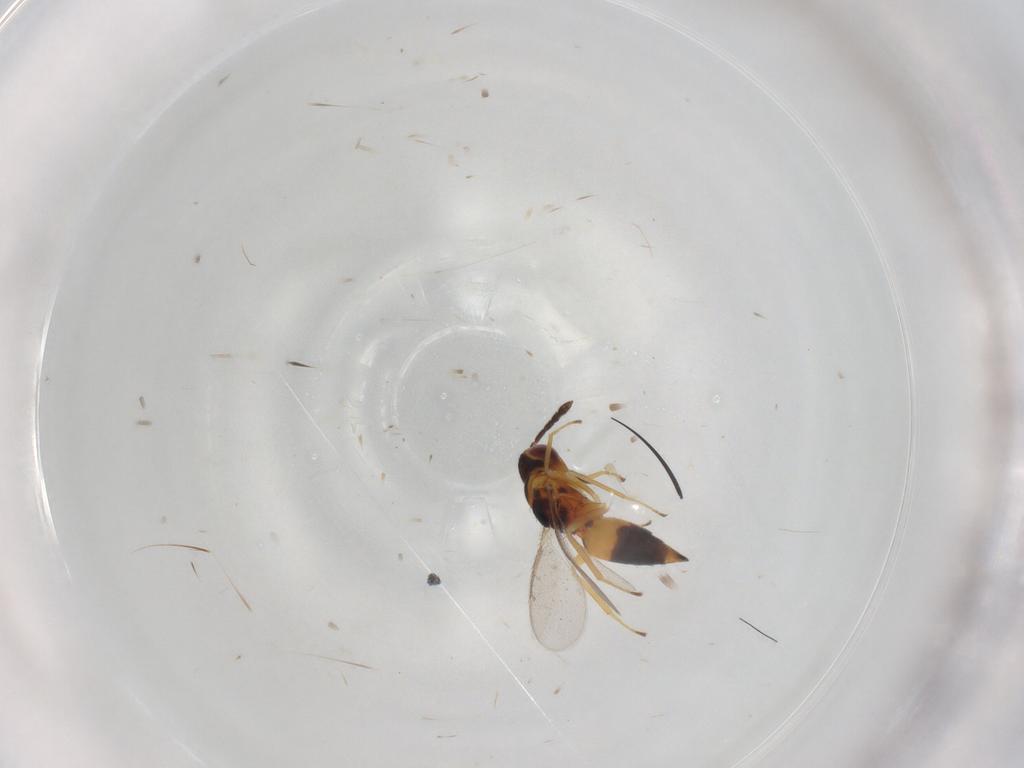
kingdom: Animalia
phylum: Arthropoda
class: Insecta
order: Hymenoptera
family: Eulophidae
